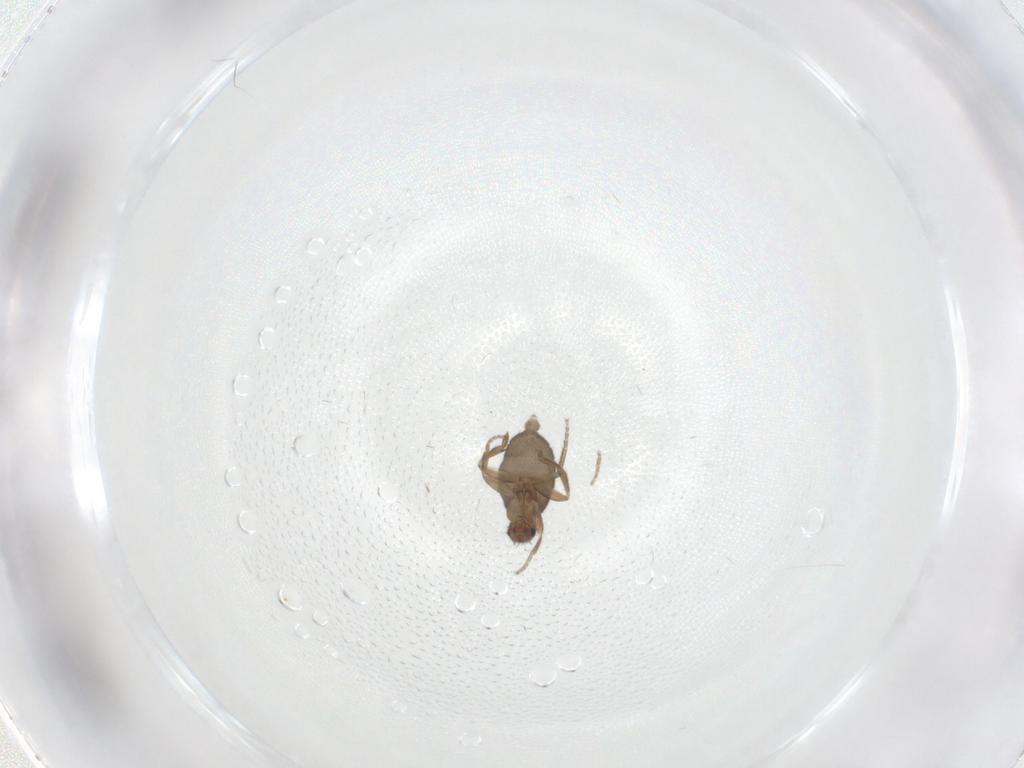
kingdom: Animalia
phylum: Arthropoda
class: Insecta
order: Diptera
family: Cecidomyiidae
